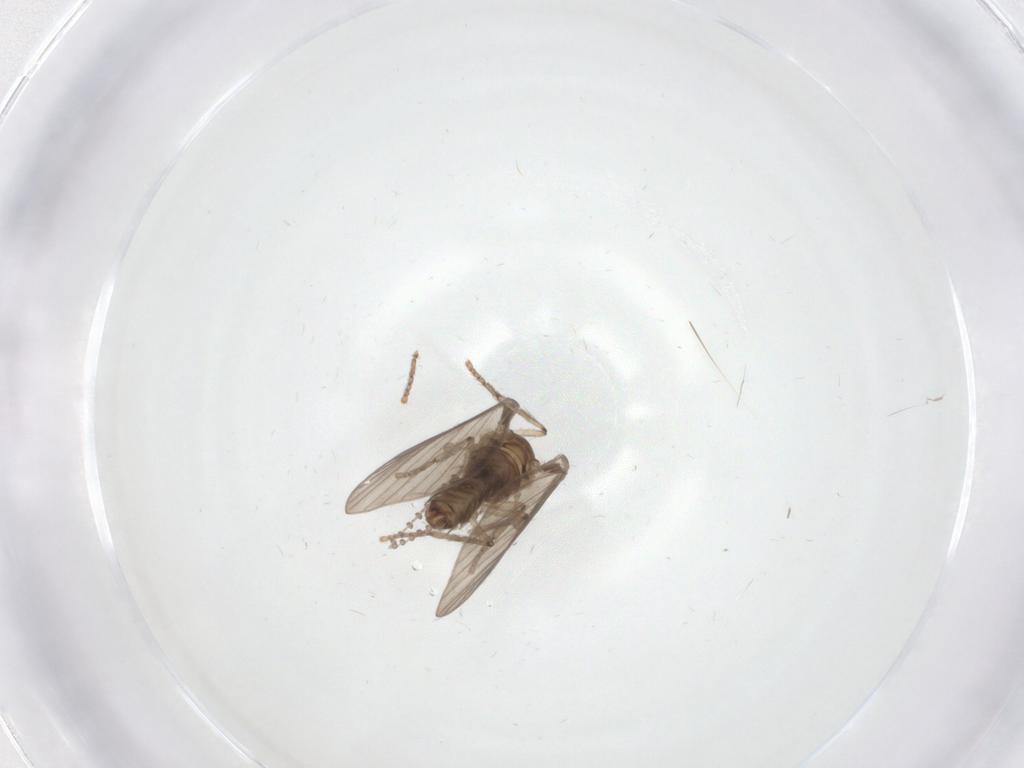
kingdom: Animalia
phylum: Arthropoda
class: Insecta
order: Diptera
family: Psychodidae
